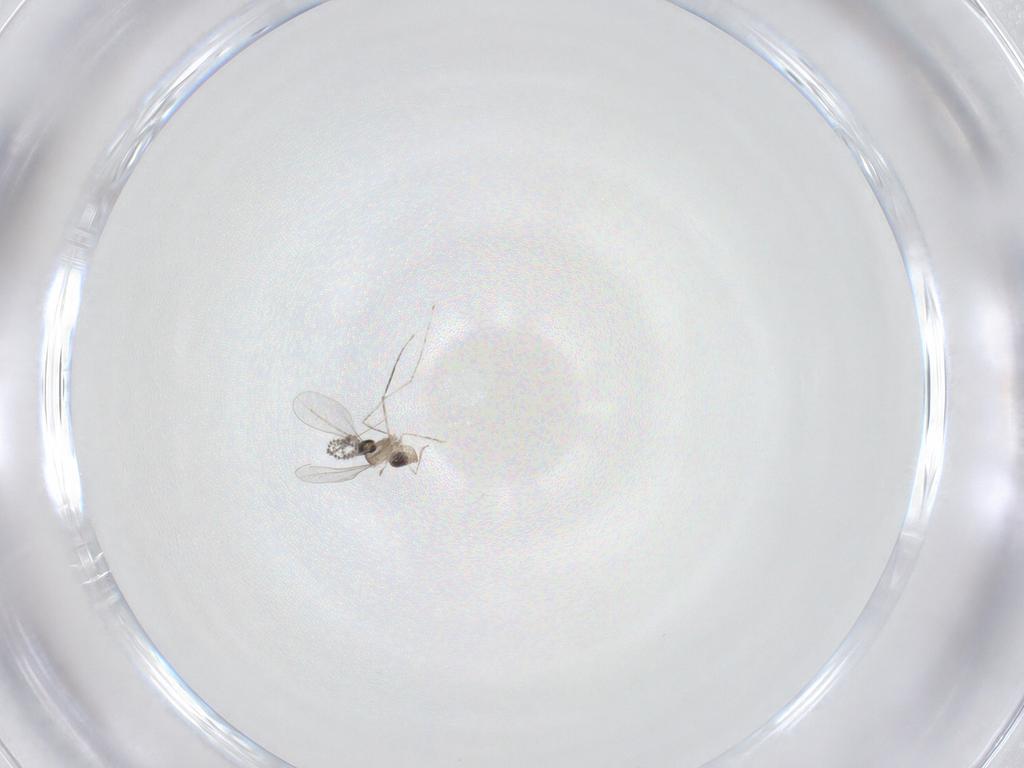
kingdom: Animalia
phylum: Arthropoda
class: Insecta
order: Diptera
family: Cecidomyiidae
